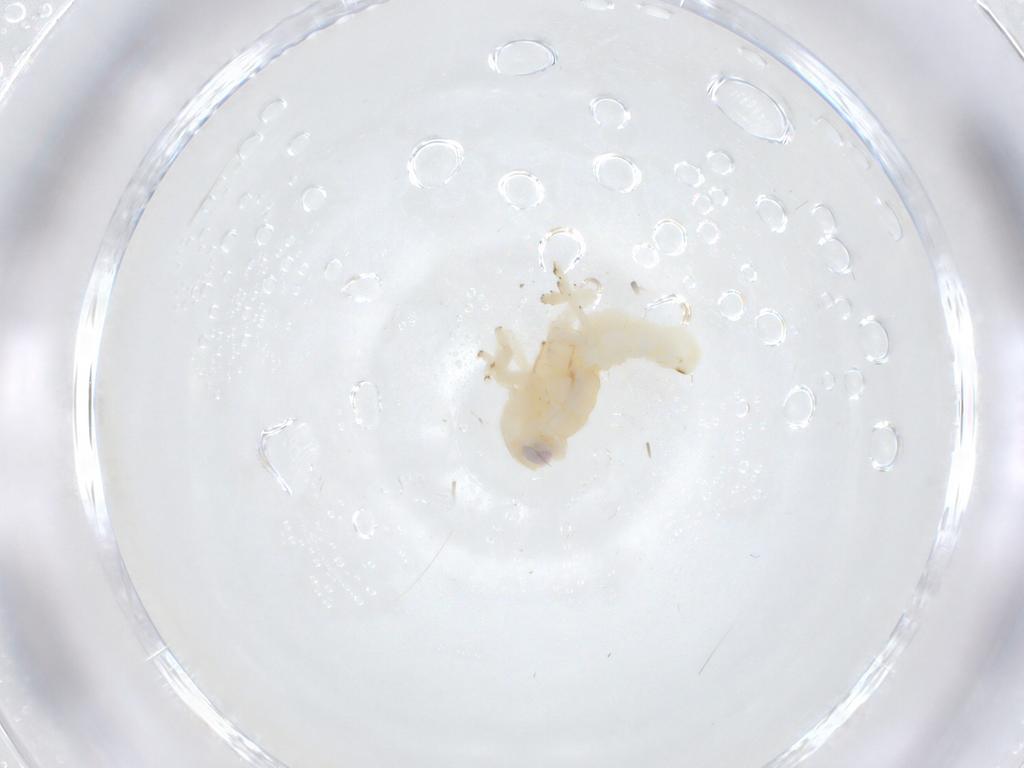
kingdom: Animalia
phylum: Arthropoda
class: Insecta
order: Hemiptera
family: Nogodinidae
